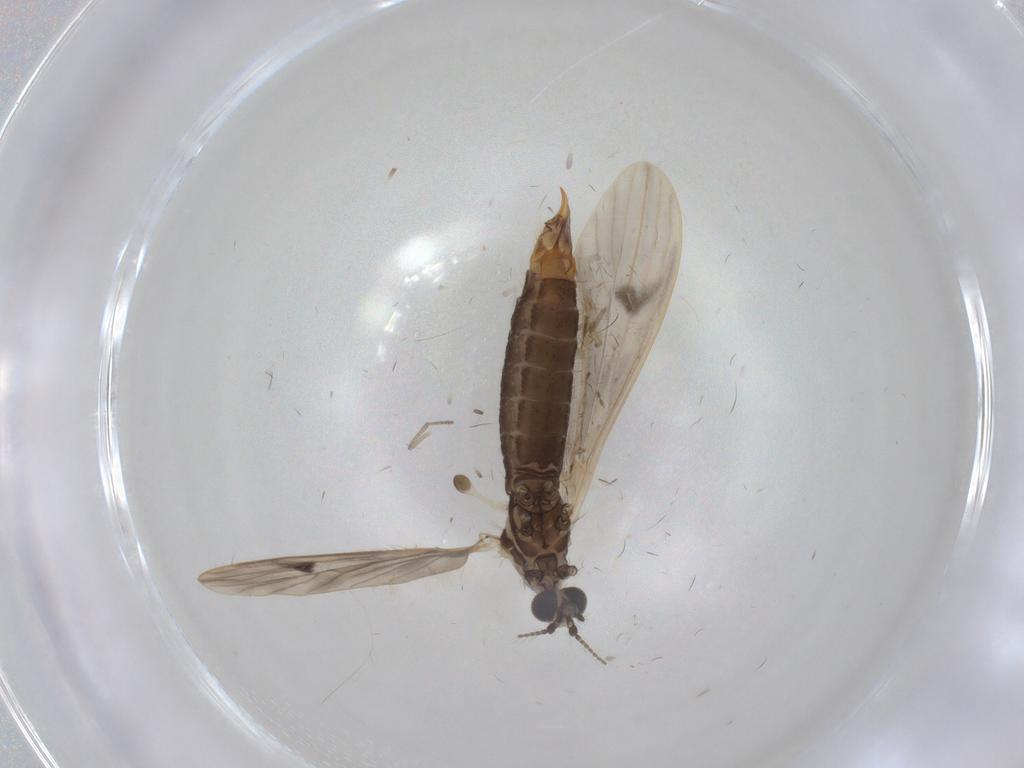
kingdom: Animalia
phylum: Arthropoda
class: Insecta
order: Diptera
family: Limoniidae
